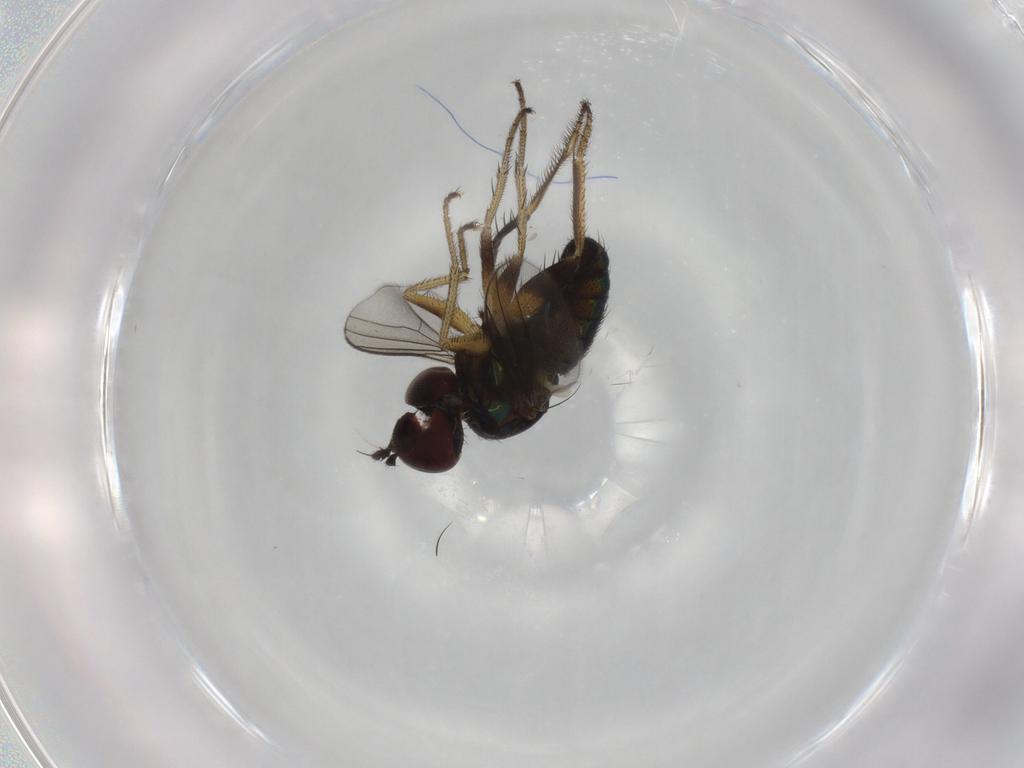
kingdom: Animalia
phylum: Arthropoda
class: Insecta
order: Diptera
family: Dolichopodidae
